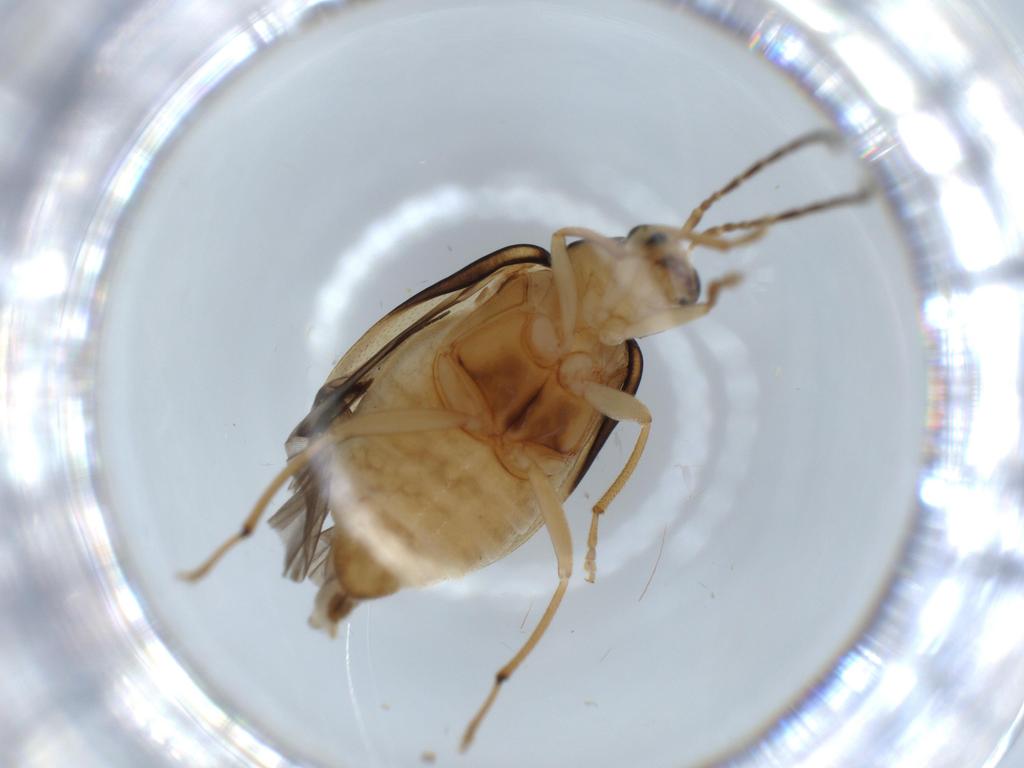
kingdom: Animalia
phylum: Arthropoda
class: Insecta
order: Coleoptera
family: Chrysomelidae
